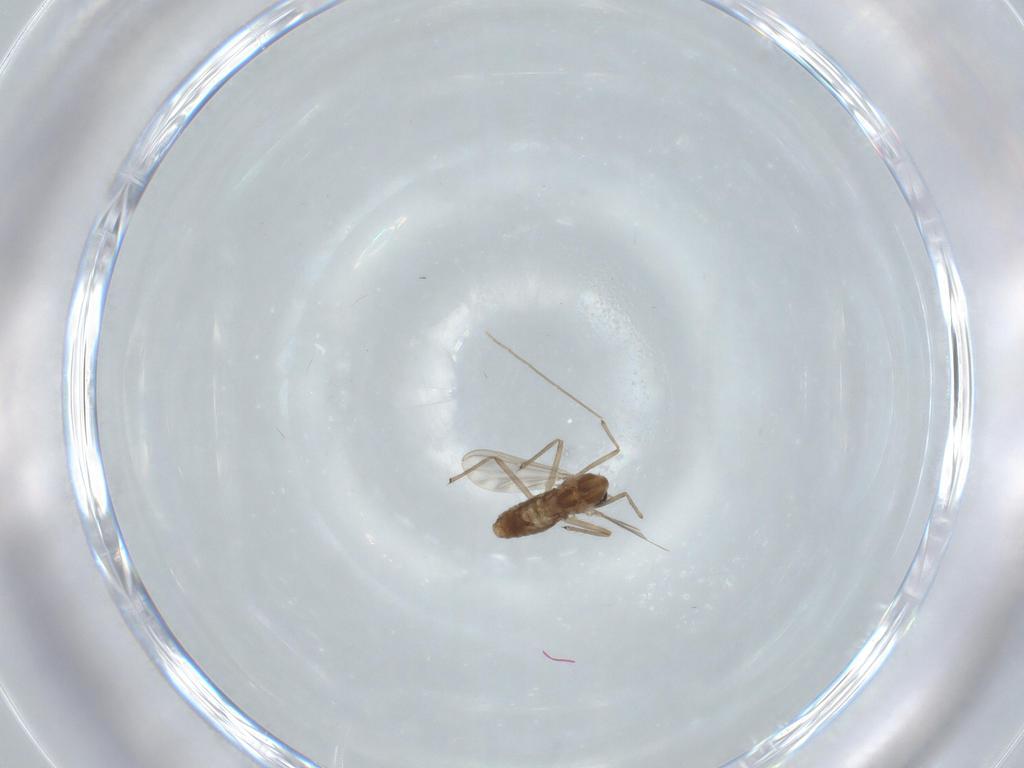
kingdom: Animalia
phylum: Arthropoda
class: Insecta
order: Diptera
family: Chironomidae
